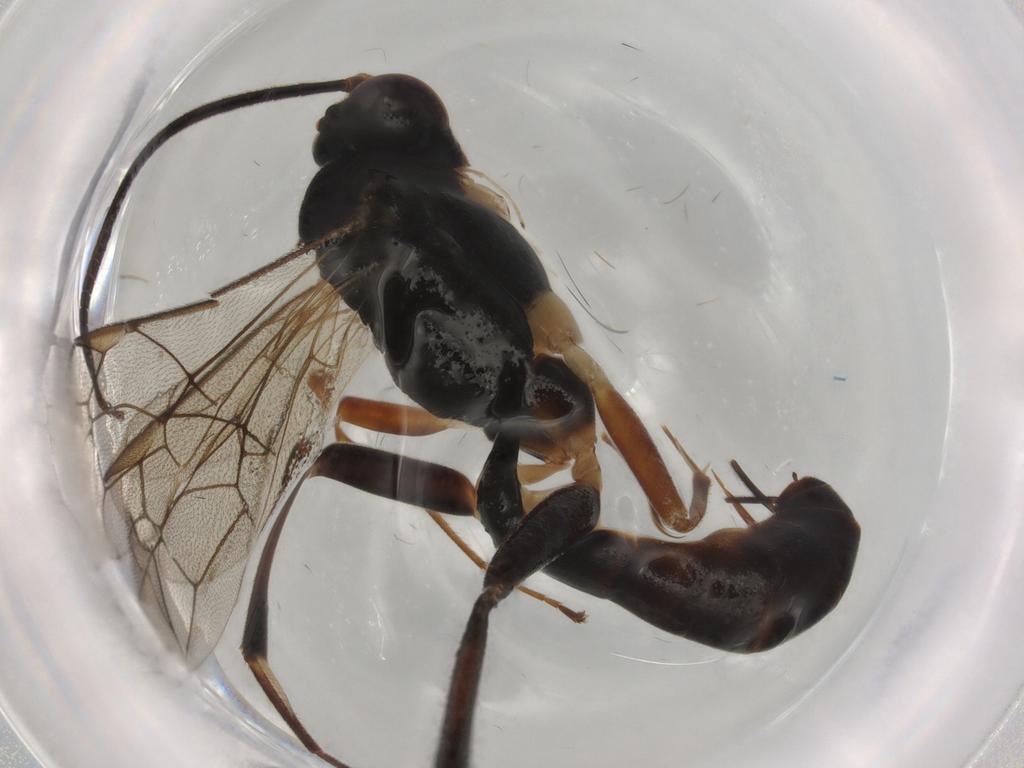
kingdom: Animalia
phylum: Arthropoda
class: Insecta
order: Hymenoptera
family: Ichneumonidae
